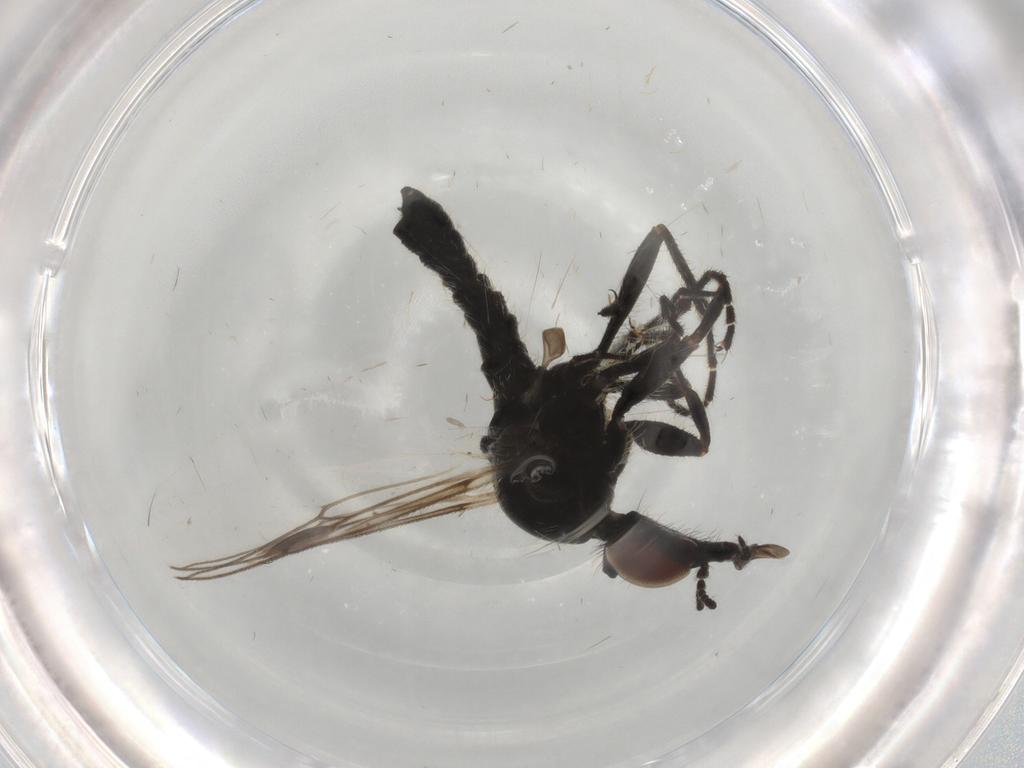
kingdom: Animalia
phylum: Arthropoda
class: Insecta
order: Diptera
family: Bibionidae
